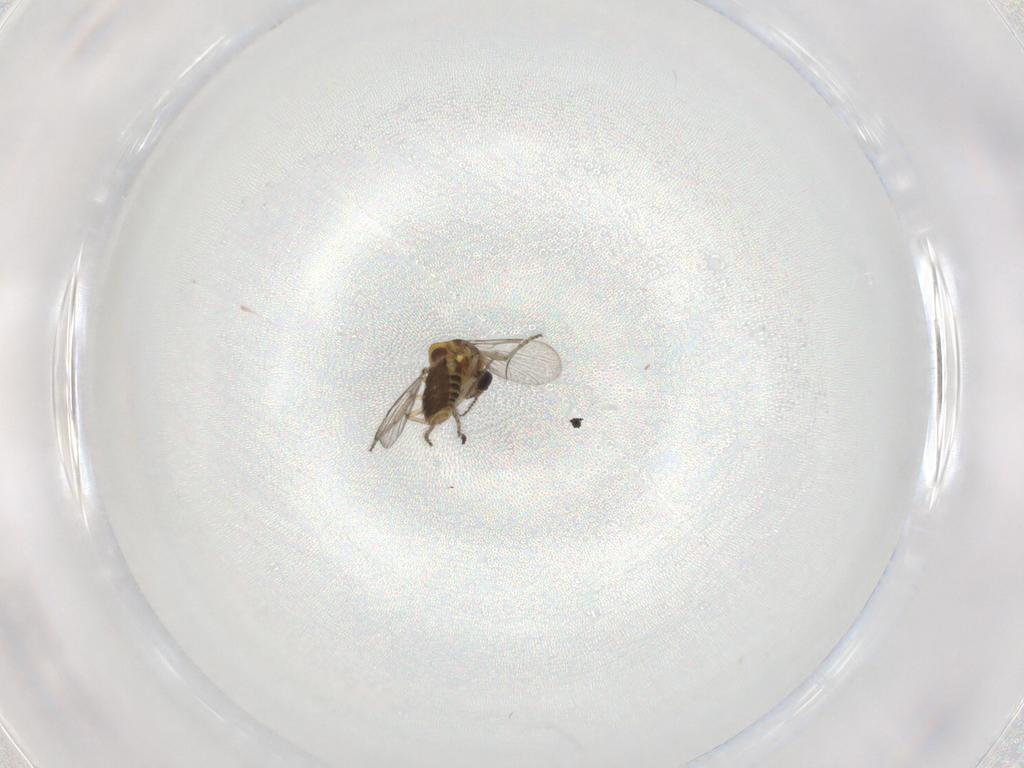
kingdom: Animalia
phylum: Arthropoda
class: Insecta
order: Diptera
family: Ceratopogonidae
